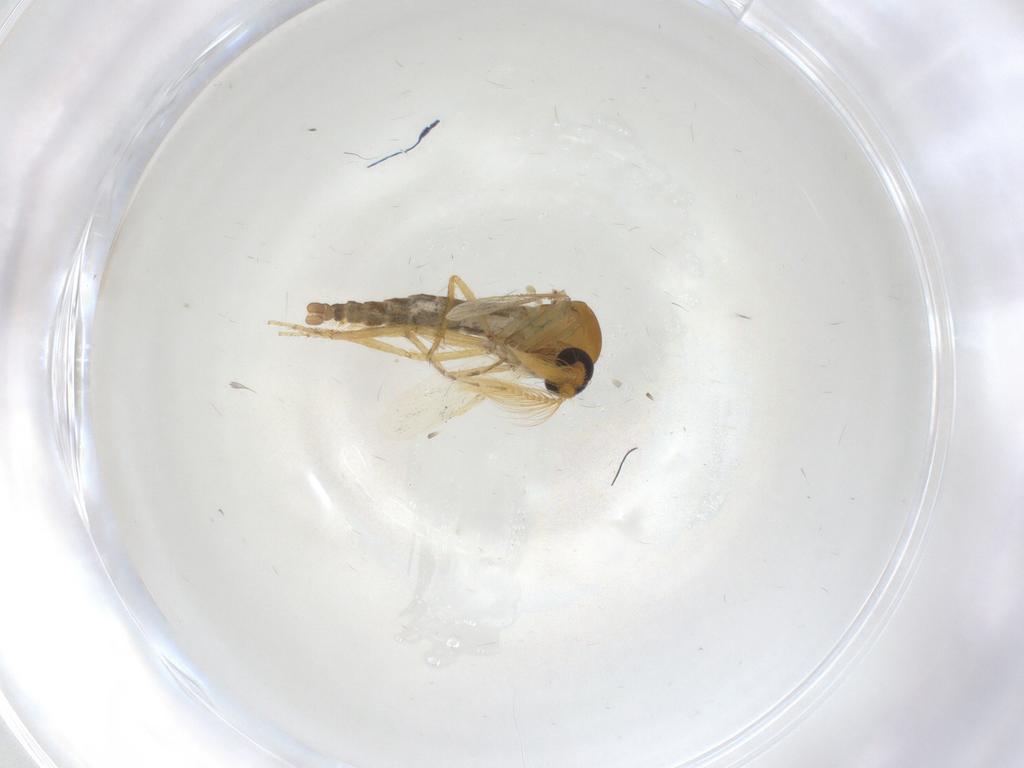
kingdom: Animalia
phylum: Arthropoda
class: Insecta
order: Diptera
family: Ceratopogonidae
